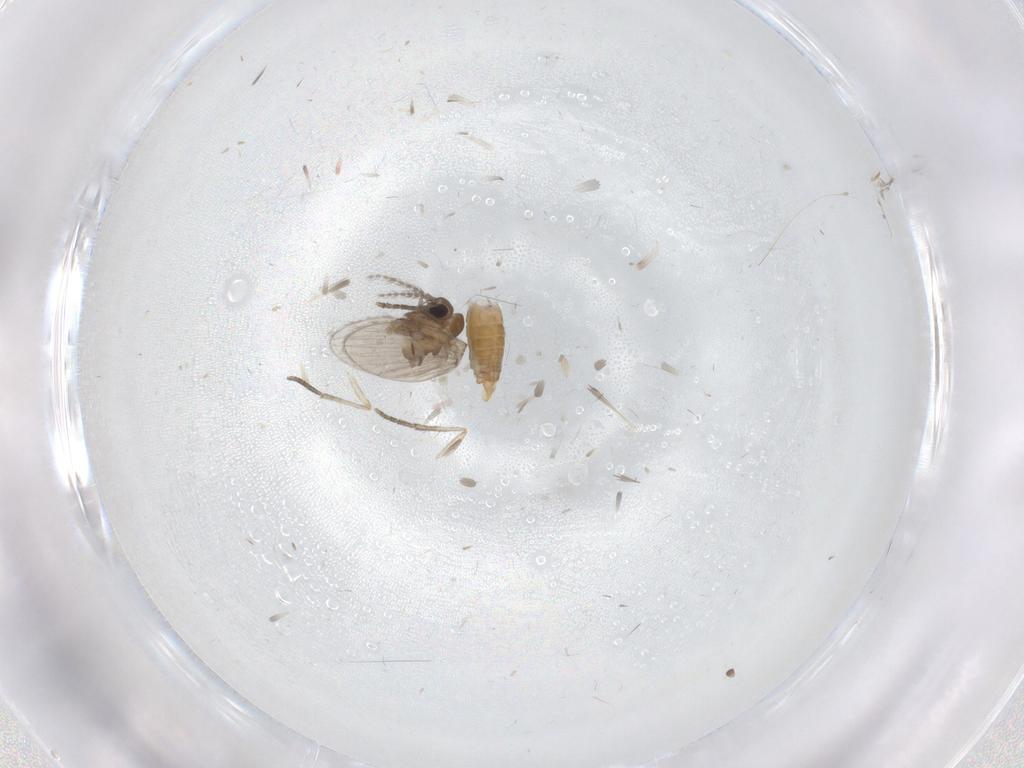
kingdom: Animalia
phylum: Arthropoda
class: Insecta
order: Diptera
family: Psychodidae
